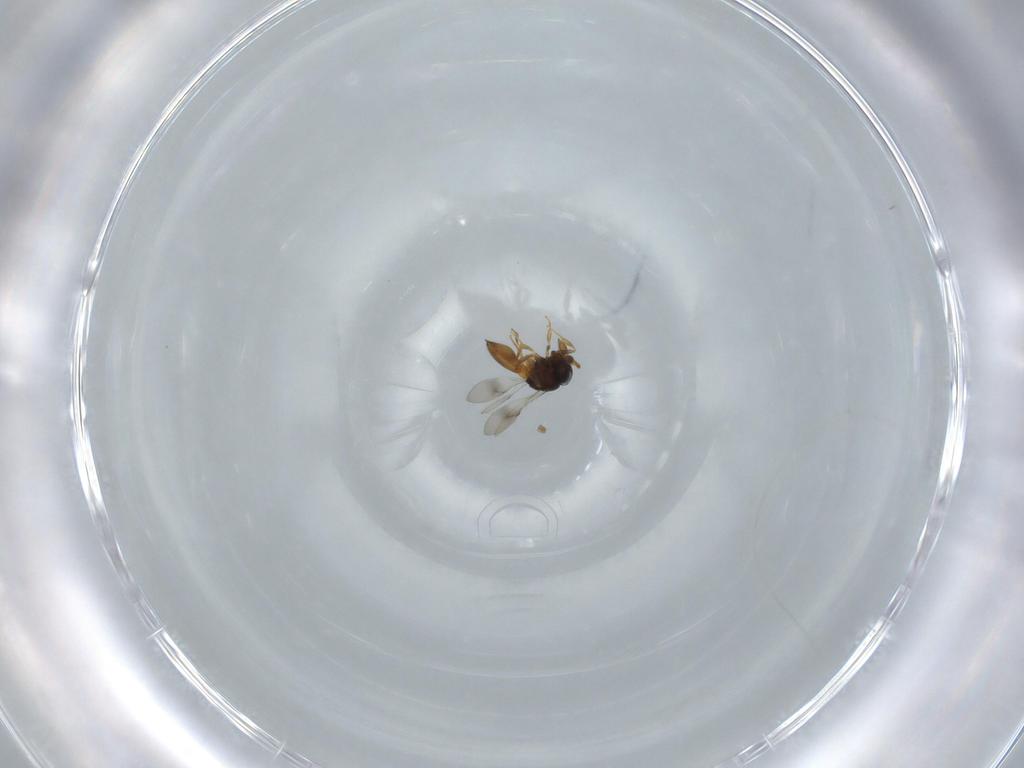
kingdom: Animalia
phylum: Arthropoda
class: Insecta
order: Hymenoptera
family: Scelionidae
